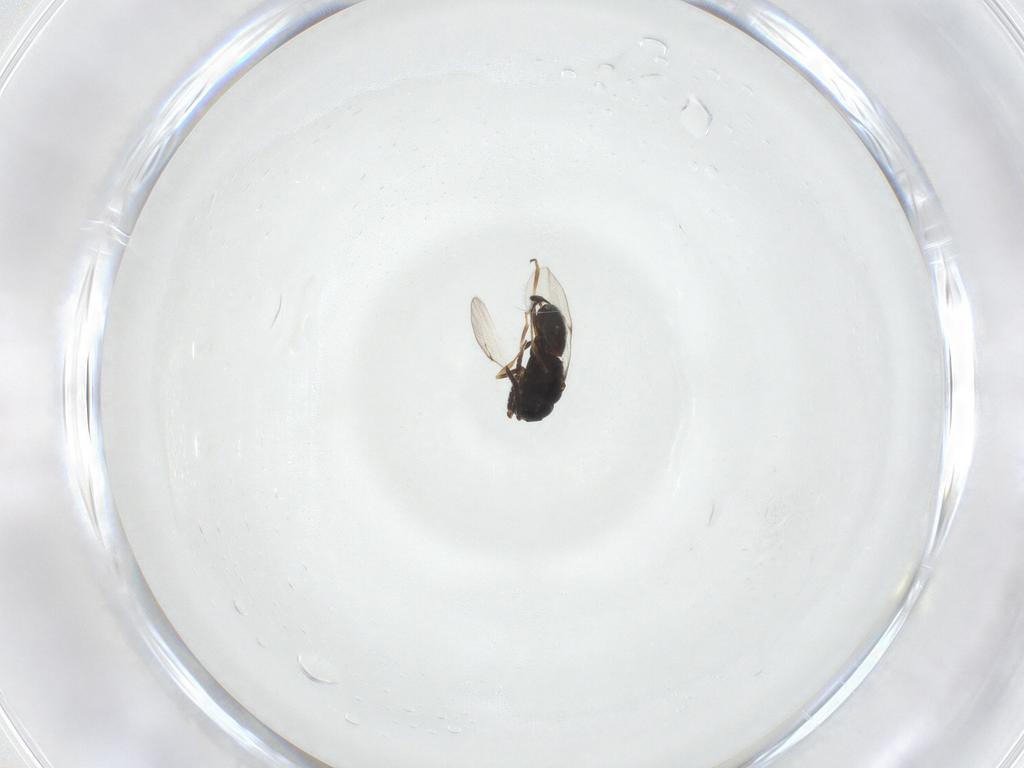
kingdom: Animalia
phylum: Arthropoda
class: Insecta
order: Hymenoptera
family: Pompilidae
